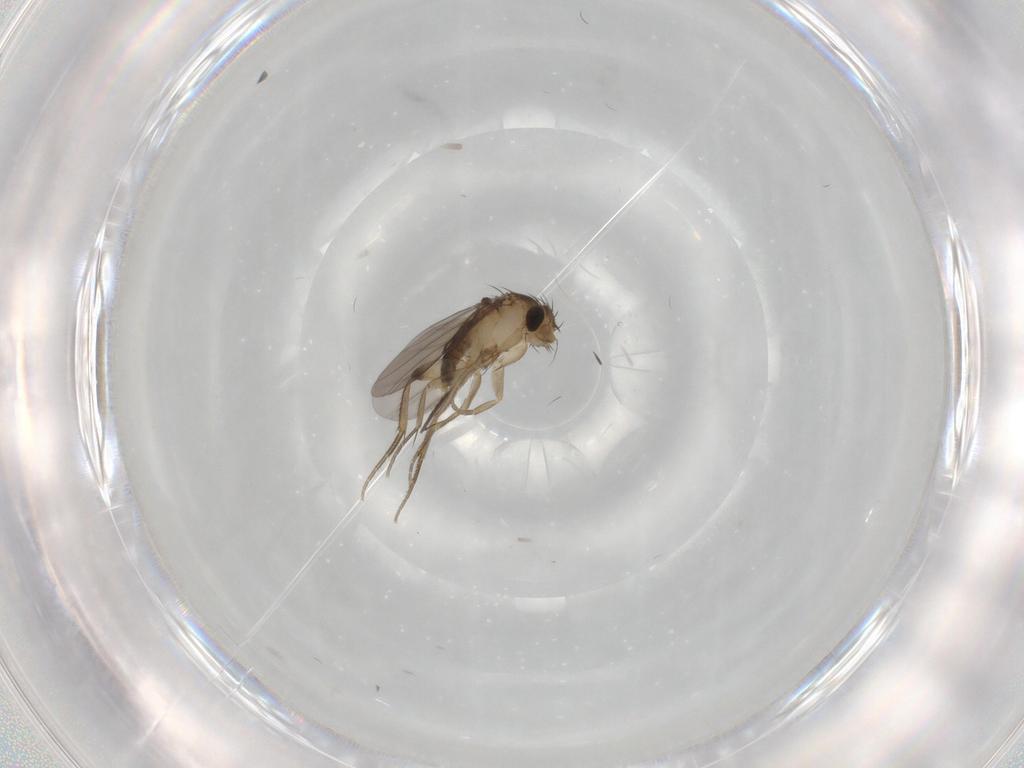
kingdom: Animalia
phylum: Arthropoda
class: Insecta
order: Diptera
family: Phoridae
